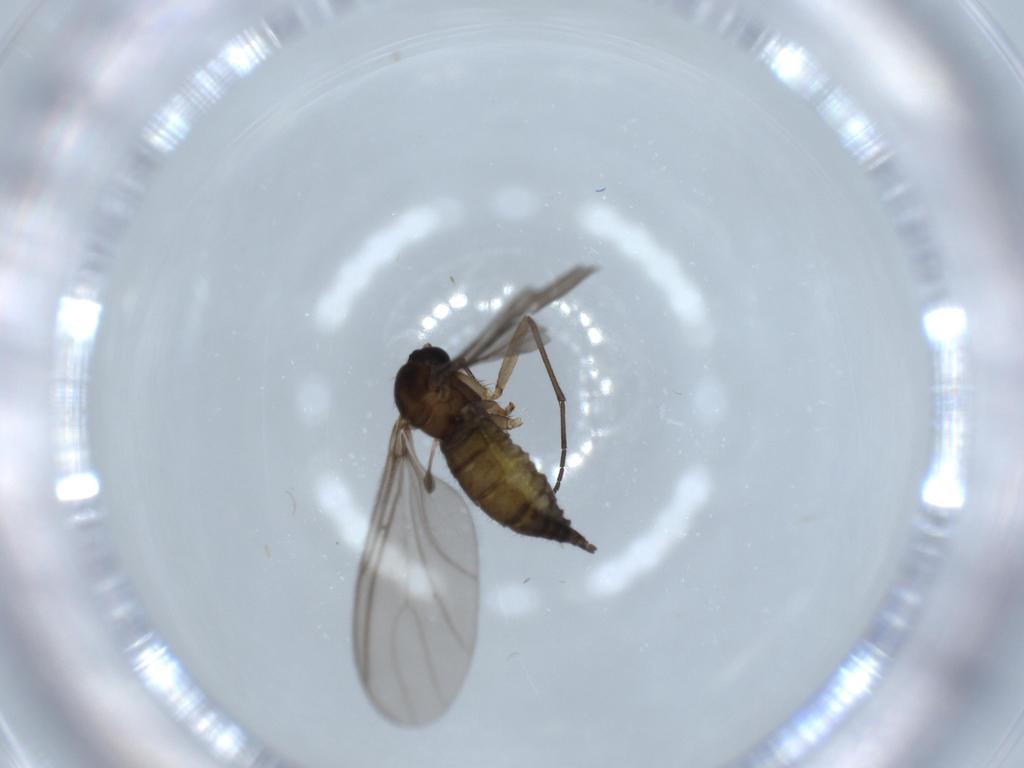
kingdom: Animalia
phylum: Arthropoda
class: Insecta
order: Diptera
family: Sciaridae
